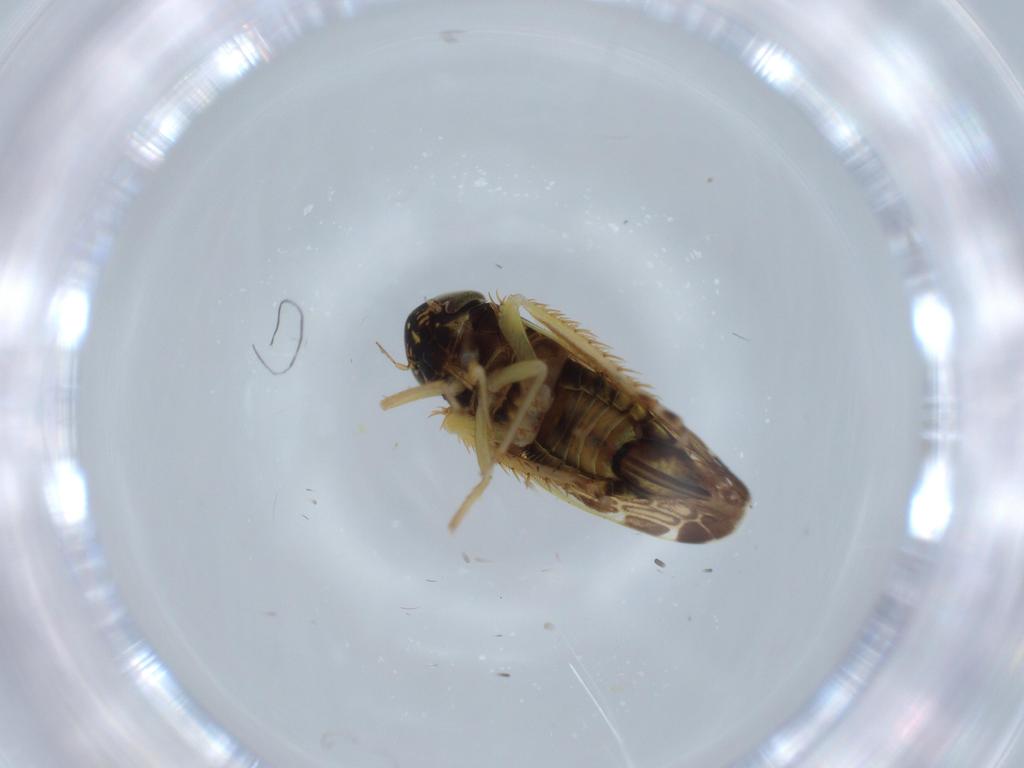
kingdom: Animalia
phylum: Arthropoda
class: Insecta
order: Hemiptera
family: Cicadellidae
